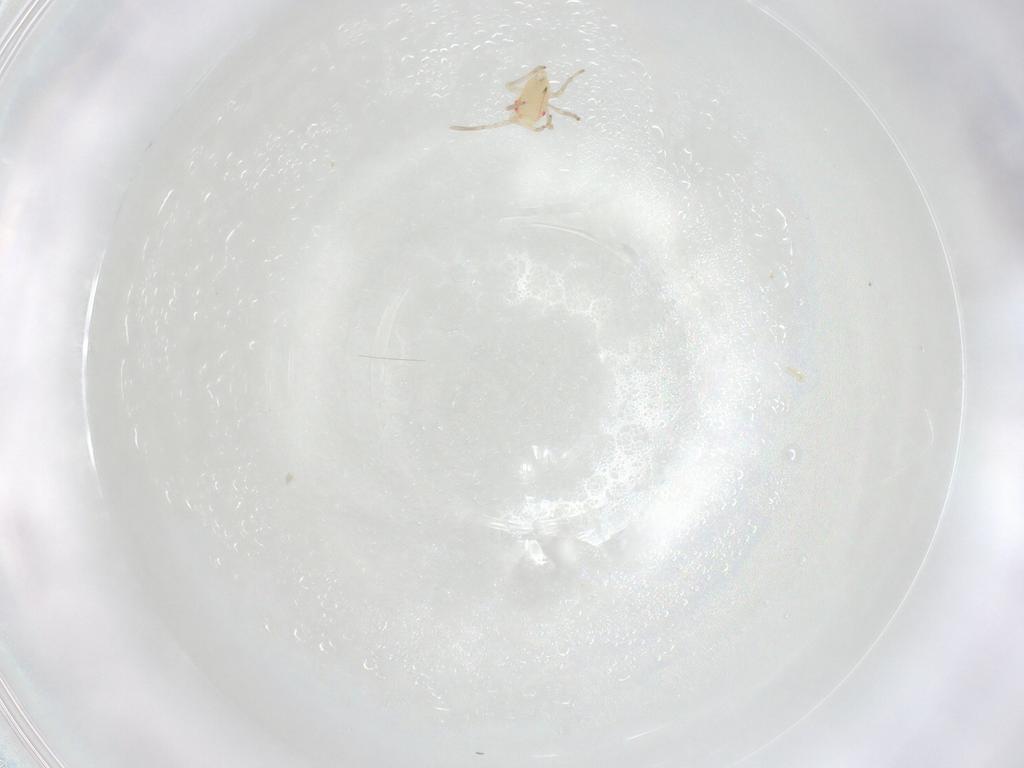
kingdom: Animalia
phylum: Arthropoda
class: Insecta
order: Hemiptera
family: Miridae
